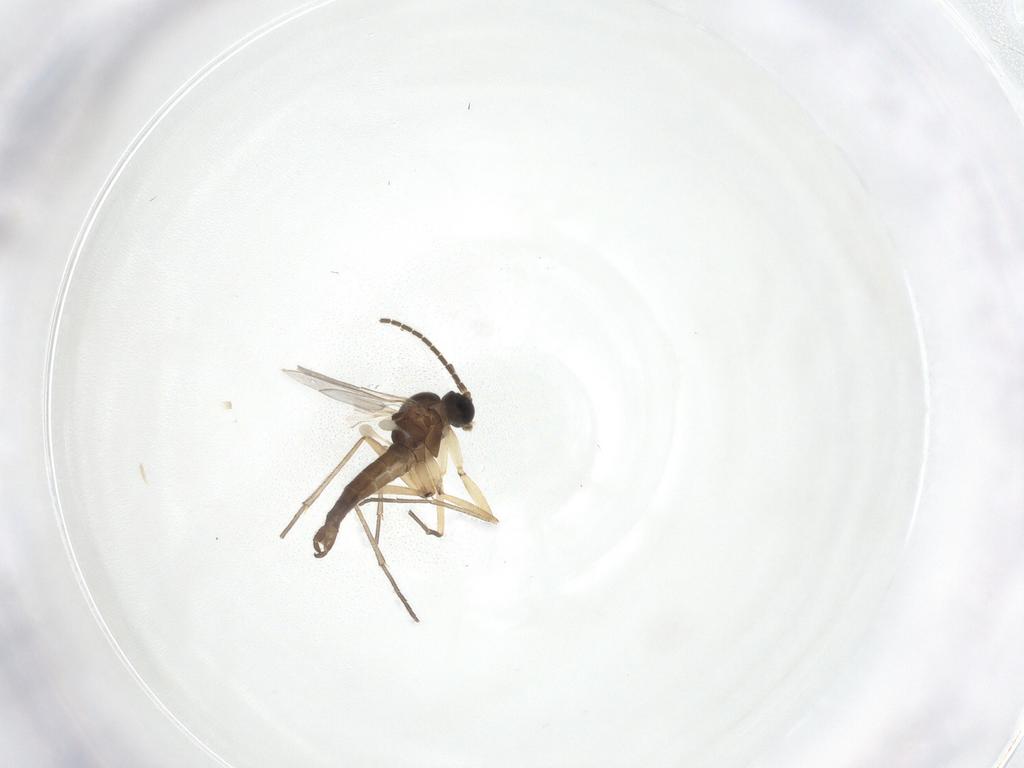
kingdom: Animalia
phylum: Arthropoda
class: Insecta
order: Diptera
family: Sciaridae
